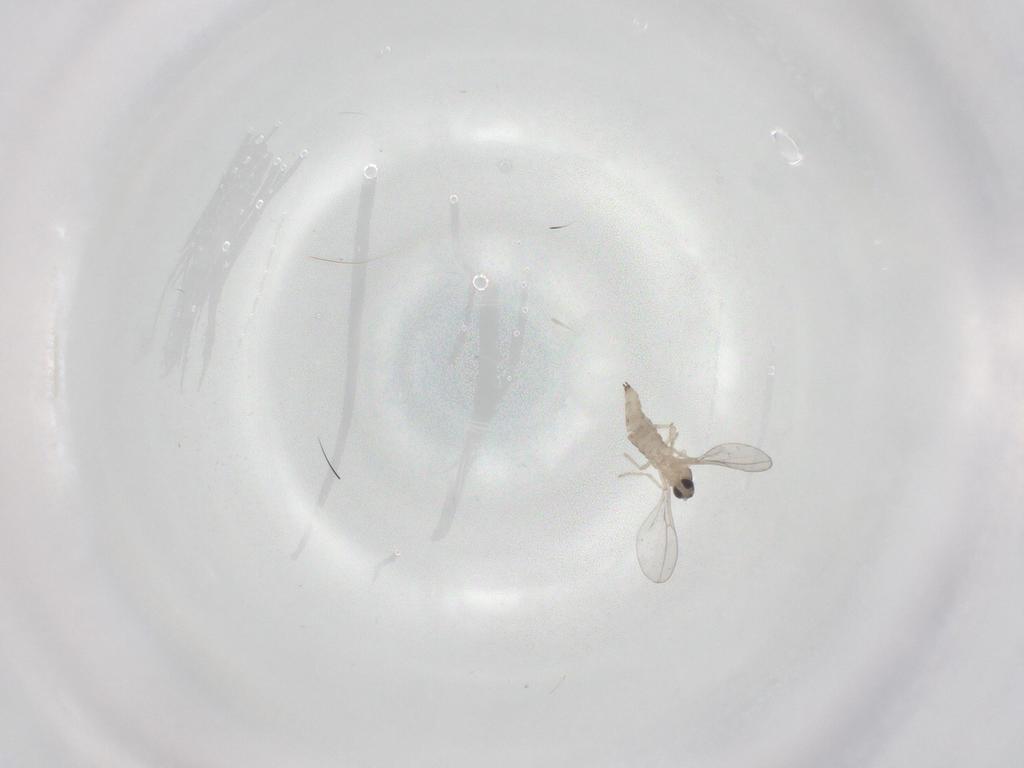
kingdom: Animalia
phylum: Arthropoda
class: Insecta
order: Diptera
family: Cecidomyiidae
